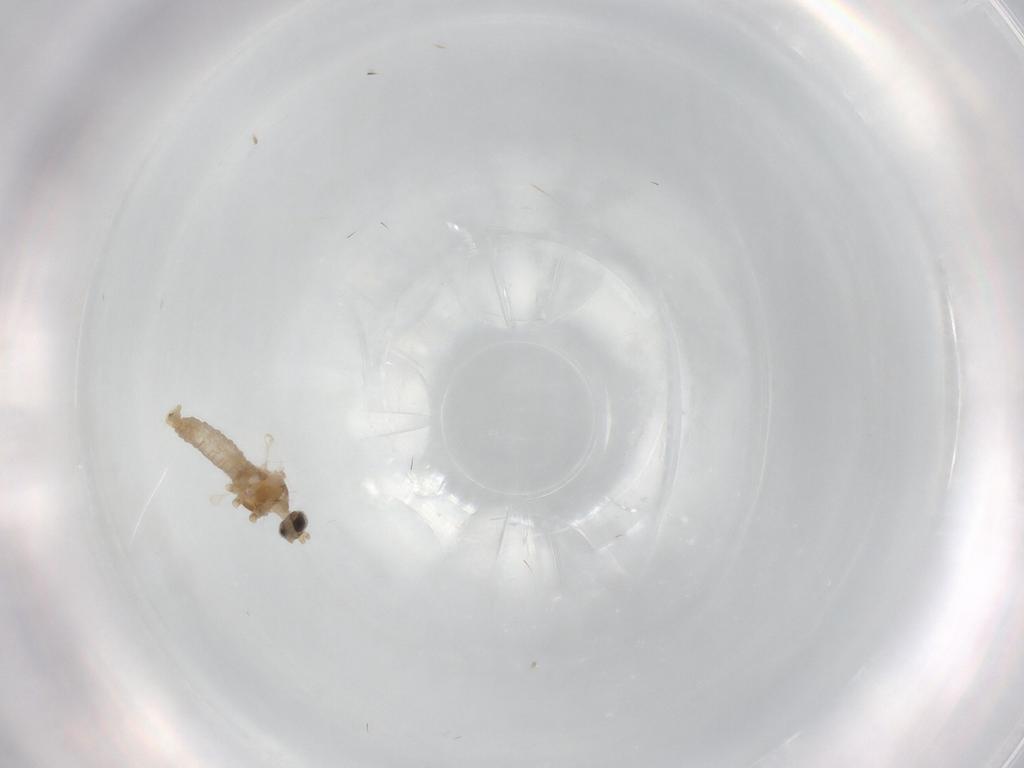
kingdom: Animalia
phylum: Arthropoda
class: Insecta
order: Diptera
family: Cecidomyiidae
